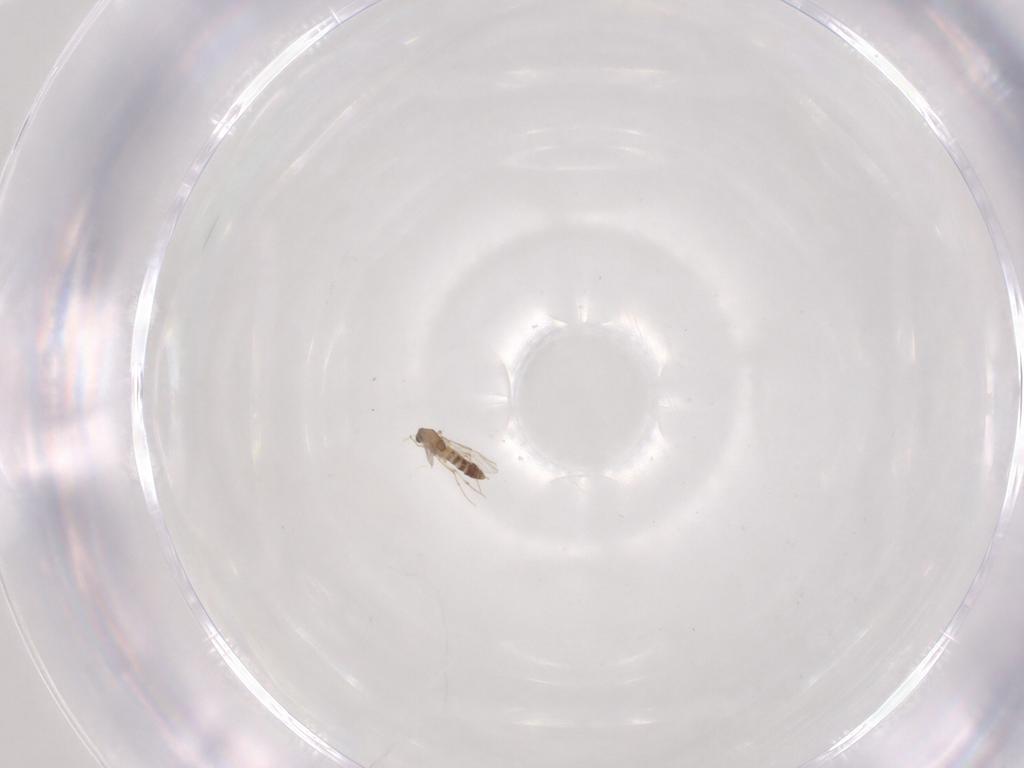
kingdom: Animalia
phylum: Arthropoda
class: Insecta
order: Diptera
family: Chironomidae
